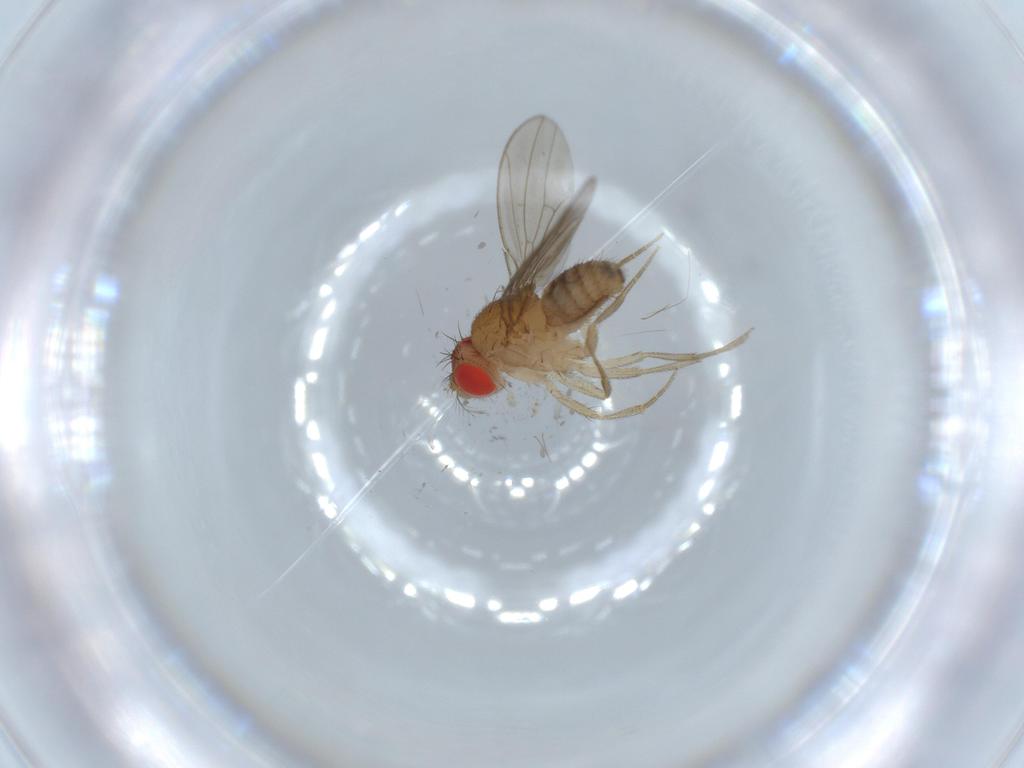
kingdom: Animalia
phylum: Arthropoda
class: Insecta
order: Diptera
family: Drosophilidae
